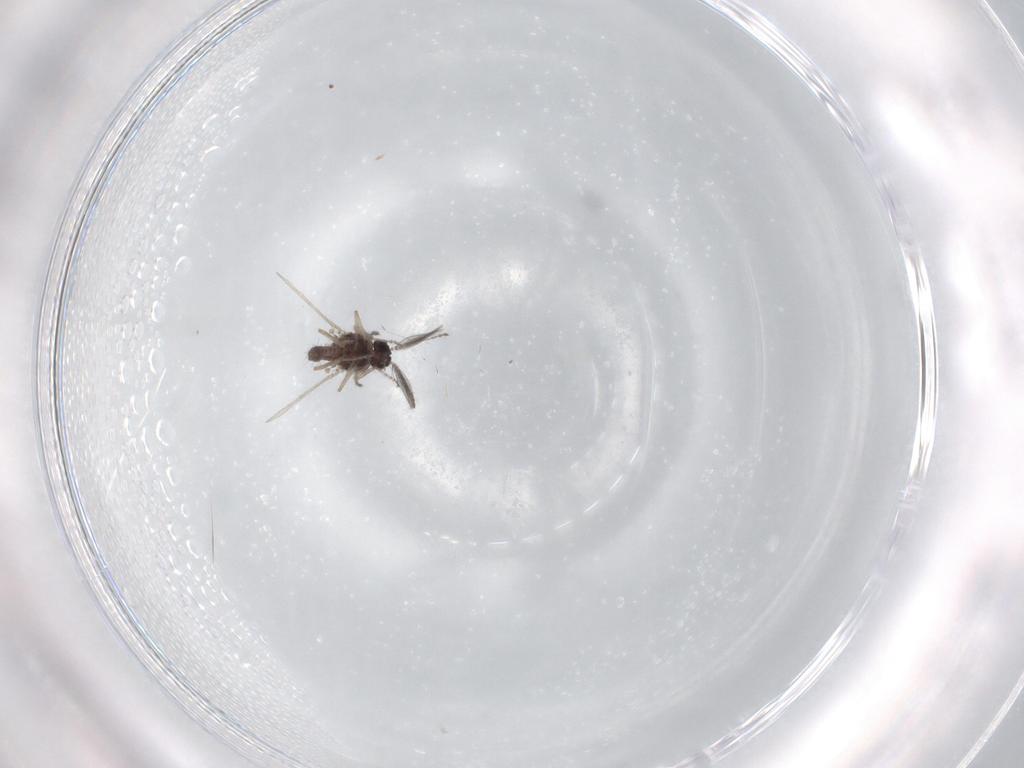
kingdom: Animalia
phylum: Arthropoda
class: Insecta
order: Diptera
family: Ceratopogonidae
